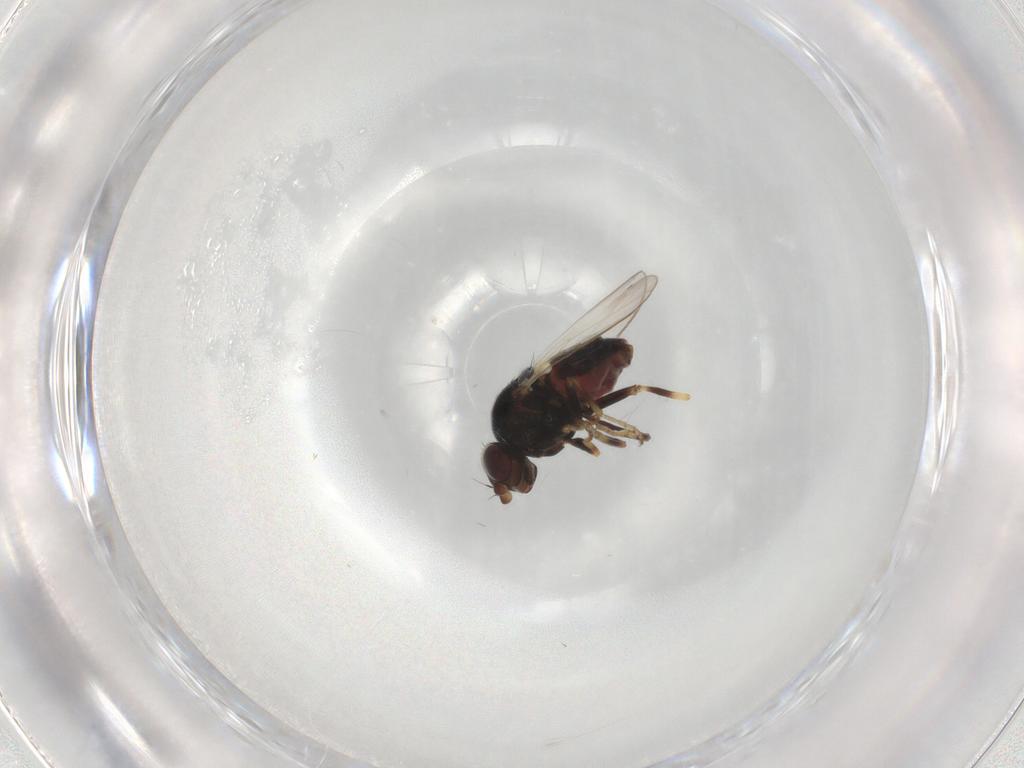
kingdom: Animalia
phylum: Arthropoda
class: Insecta
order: Diptera
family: Chloropidae
